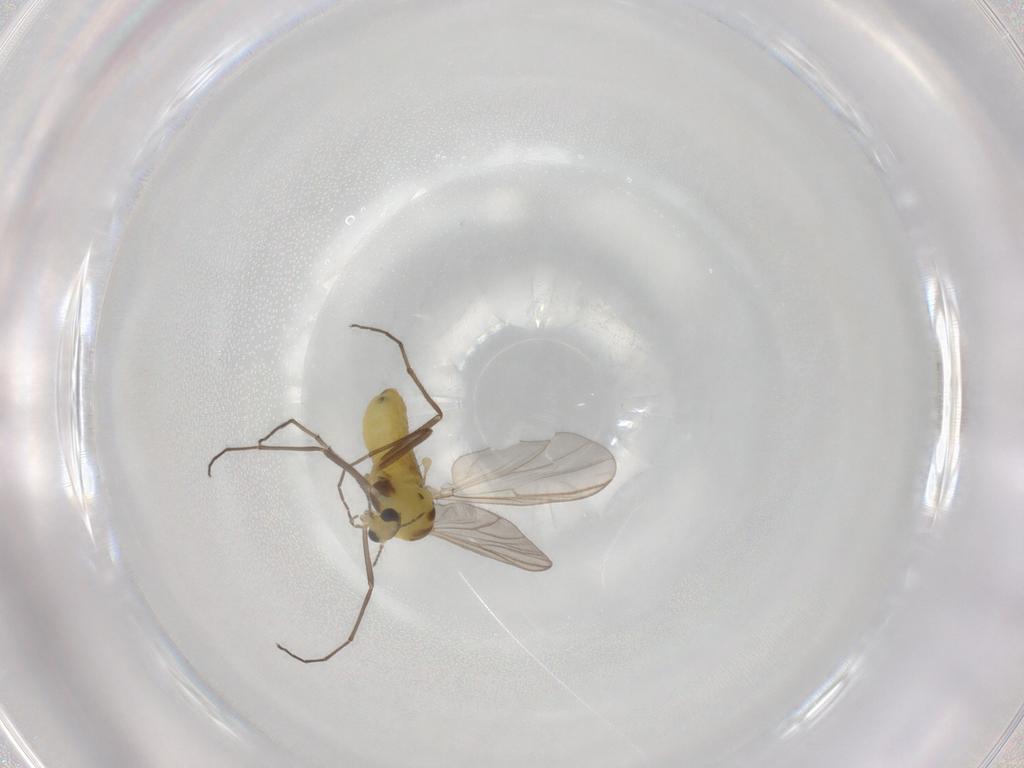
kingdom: Animalia
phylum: Arthropoda
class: Insecta
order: Diptera
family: Chironomidae
